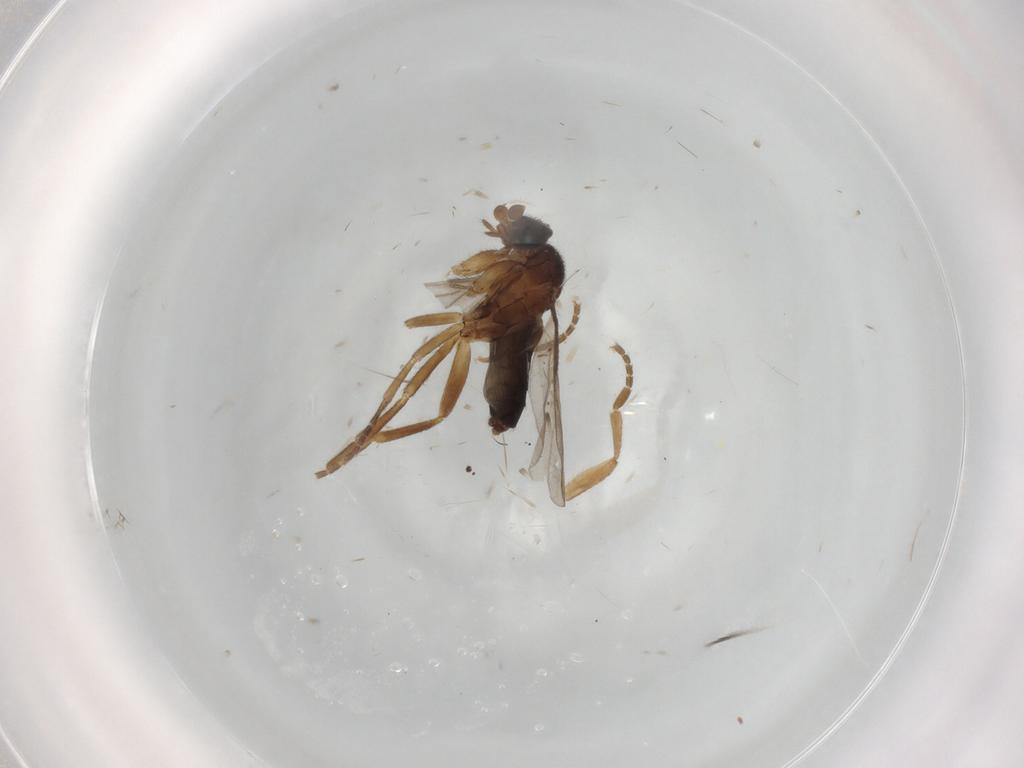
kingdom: Animalia
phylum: Arthropoda
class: Insecta
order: Diptera
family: Phoridae
